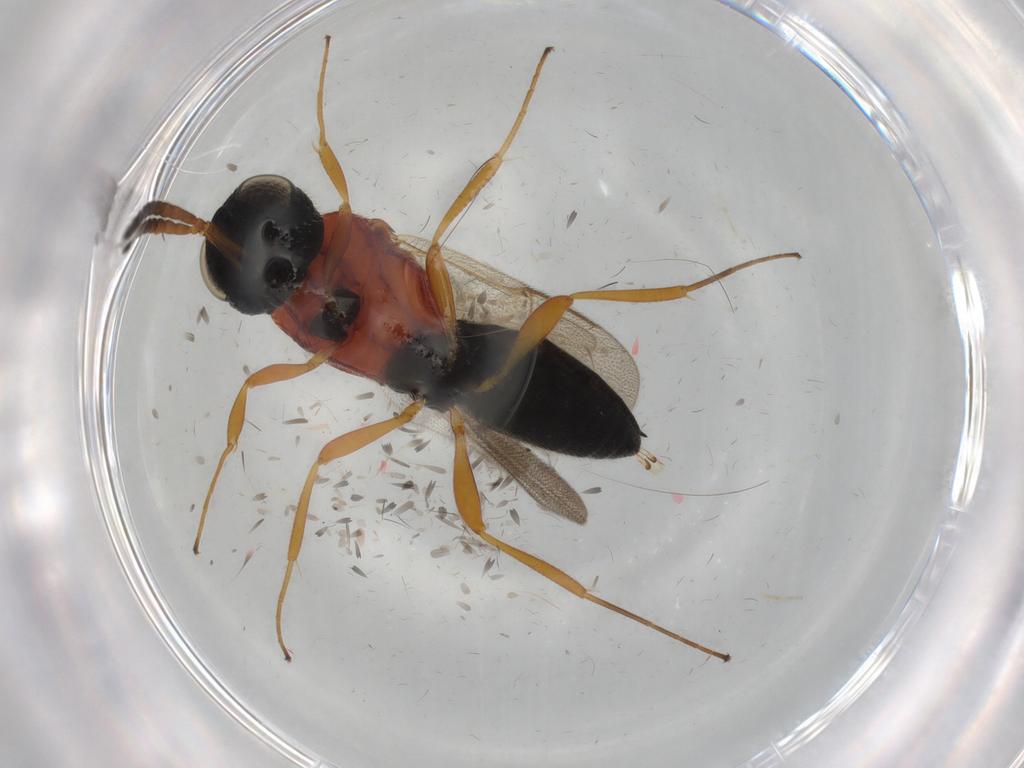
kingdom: Animalia
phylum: Arthropoda
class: Insecta
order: Hymenoptera
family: Scelionidae
